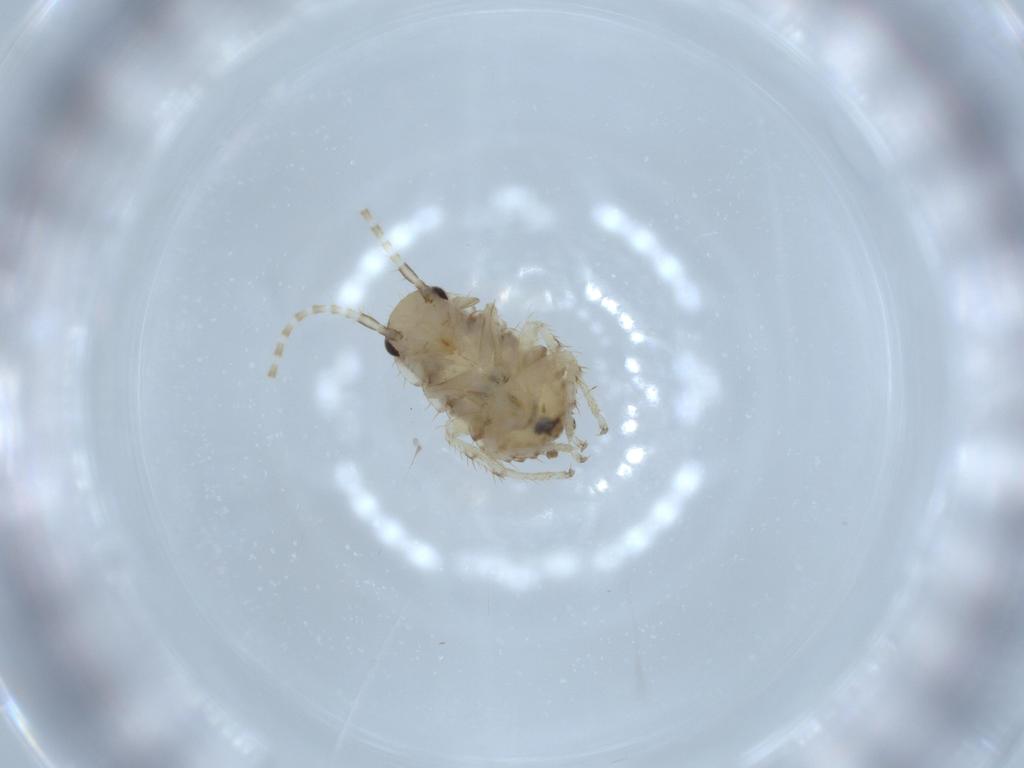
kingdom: Animalia
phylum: Arthropoda
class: Insecta
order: Blattodea
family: Ectobiidae
